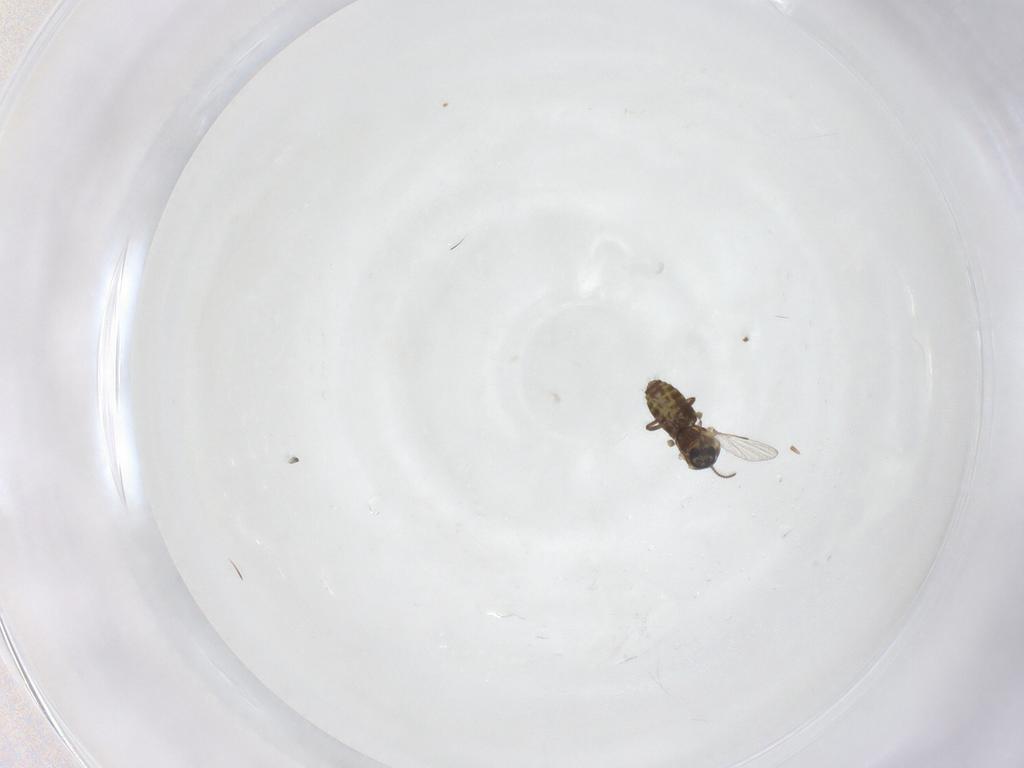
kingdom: Animalia
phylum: Arthropoda
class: Insecta
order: Diptera
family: Ceratopogonidae
